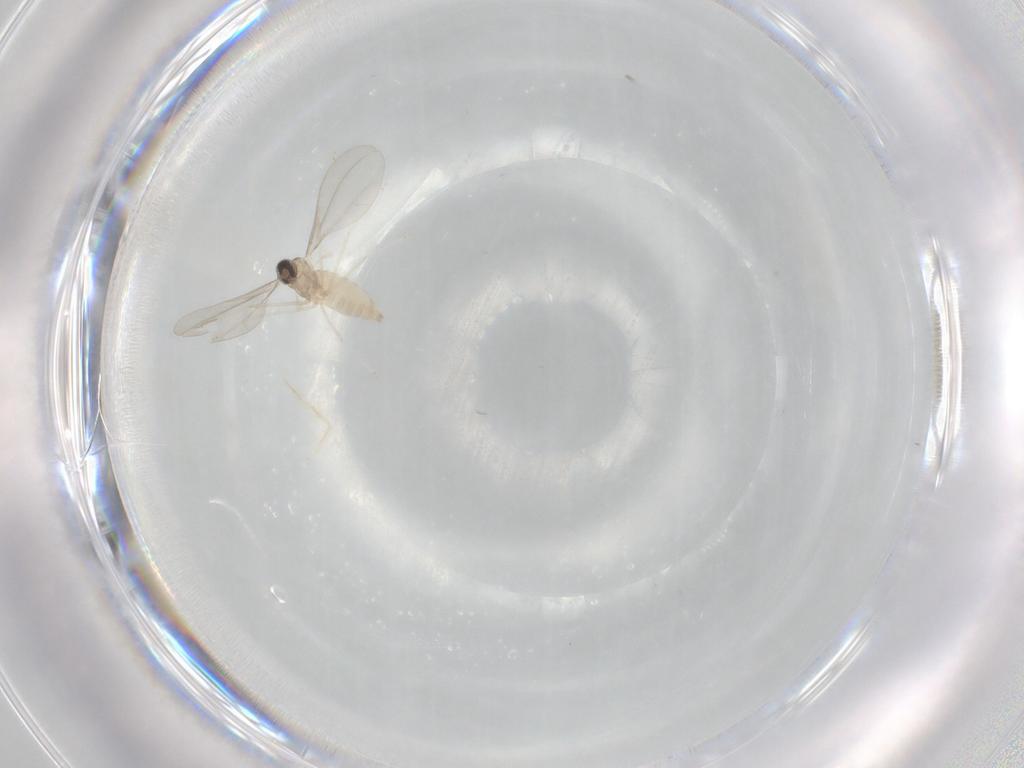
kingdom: Animalia
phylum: Arthropoda
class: Insecta
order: Diptera
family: Cecidomyiidae
